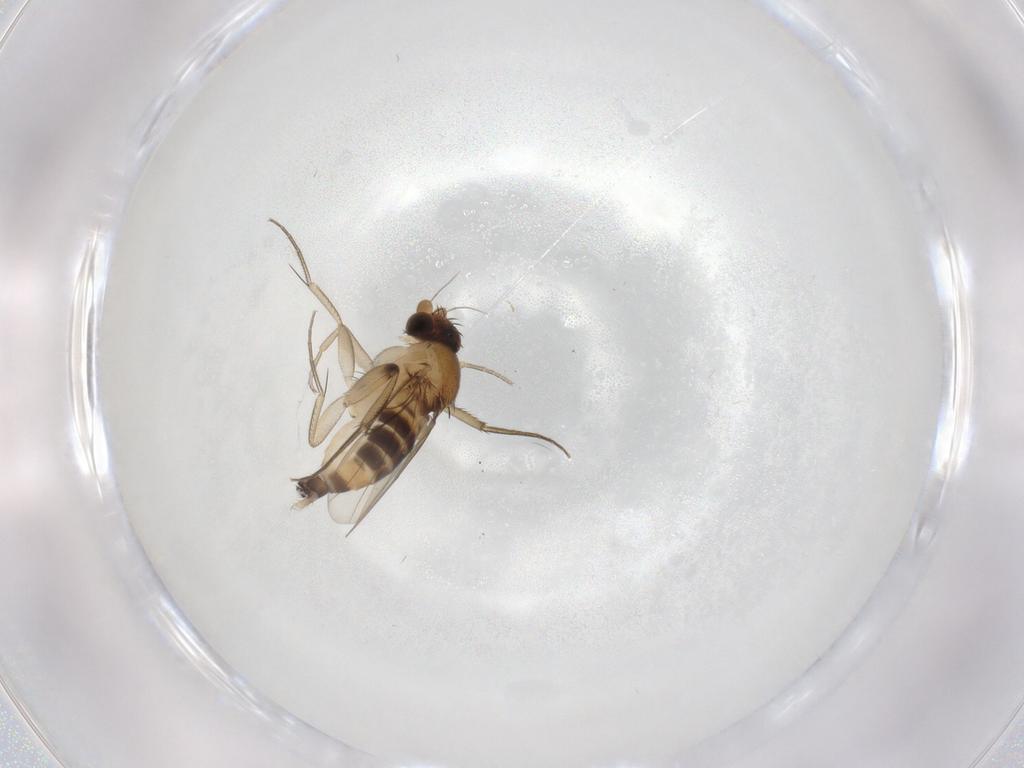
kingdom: Animalia
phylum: Arthropoda
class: Insecta
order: Diptera
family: Phoridae
